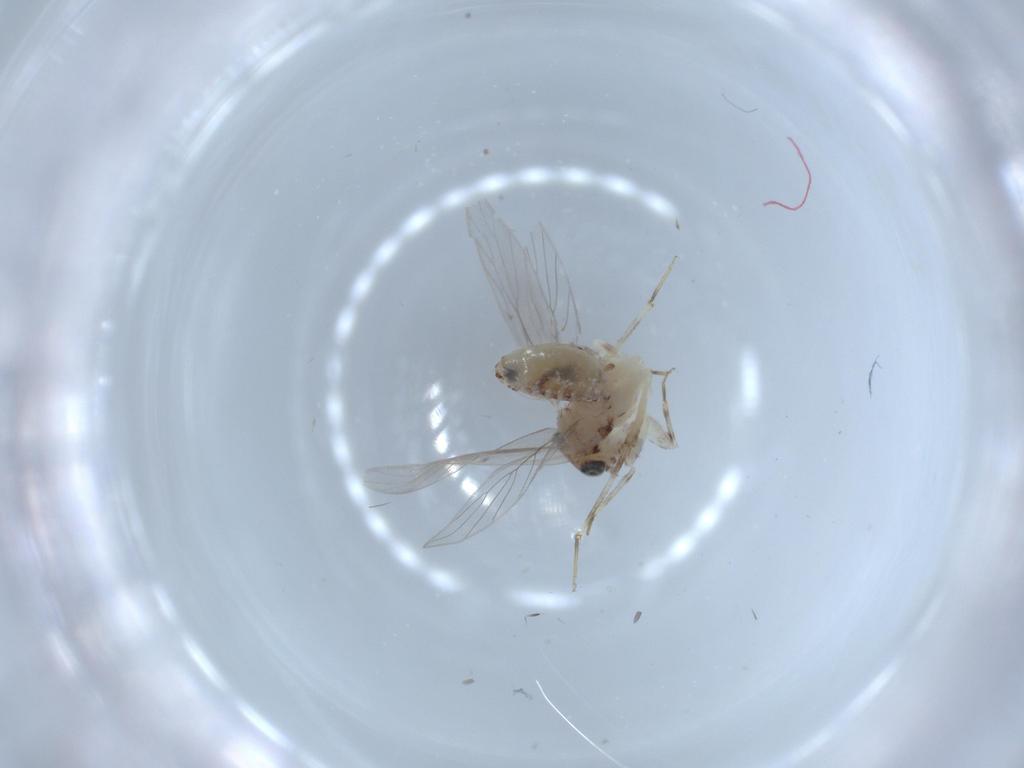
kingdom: Animalia
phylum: Arthropoda
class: Insecta
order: Psocodea
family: Lepidopsocidae
